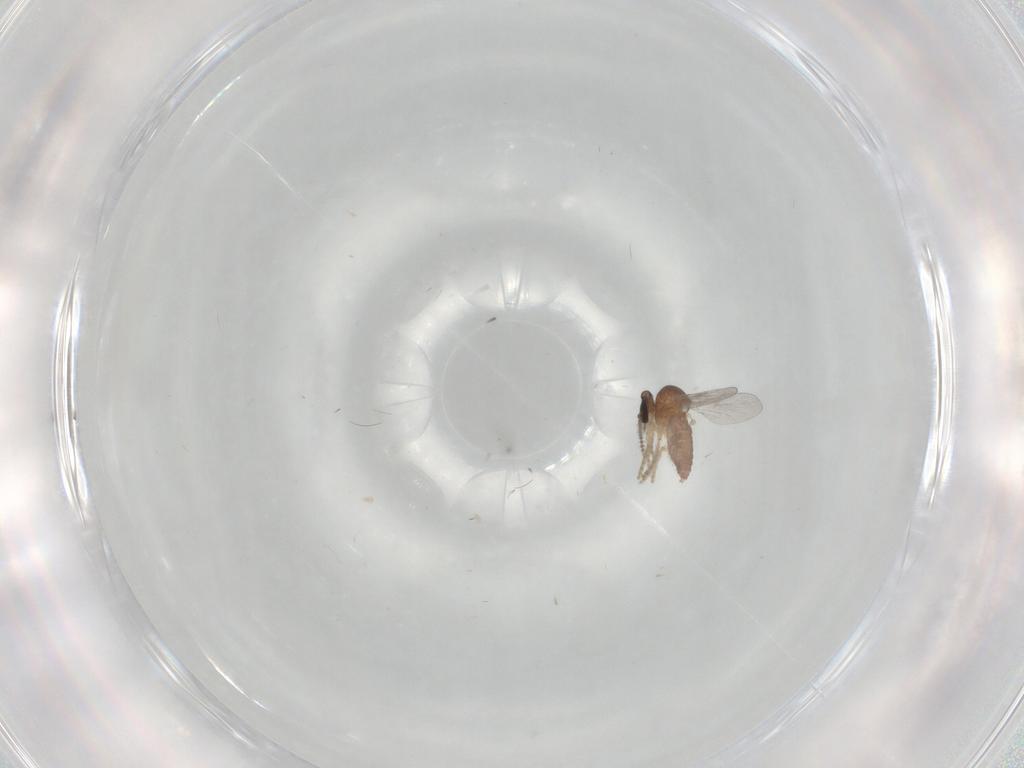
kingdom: Animalia
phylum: Arthropoda
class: Insecta
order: Diptera
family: Ceratopogonidae
